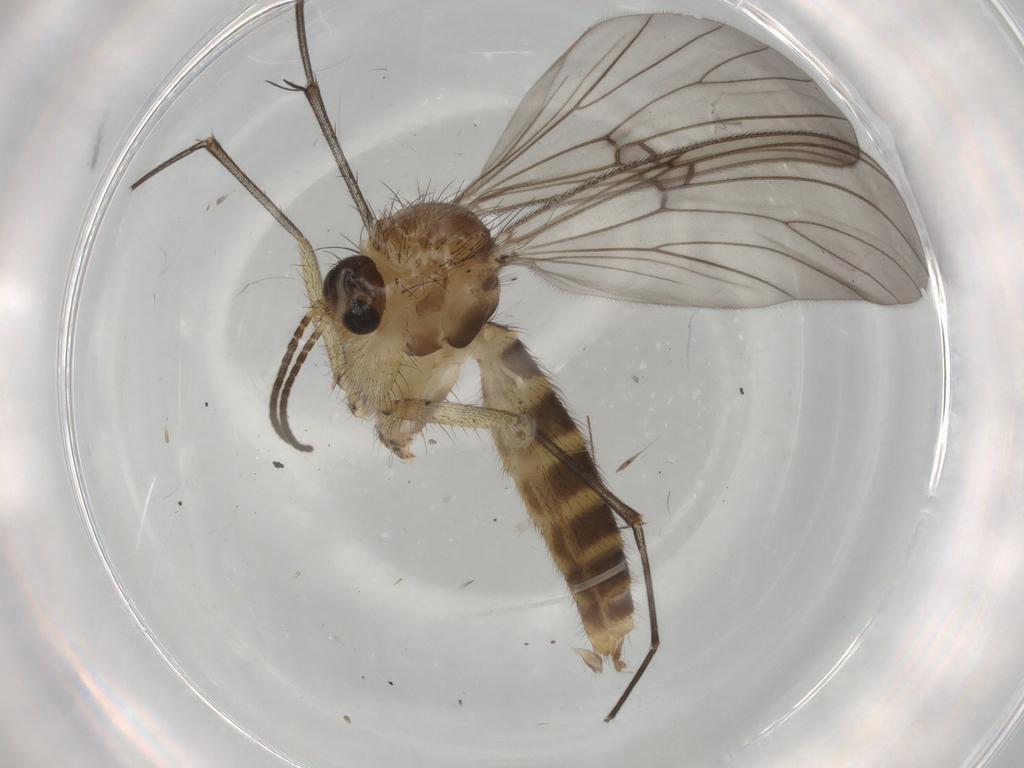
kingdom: Animalia
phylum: Arthropoda
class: Insecta
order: Diptera
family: Mycetophilidae
